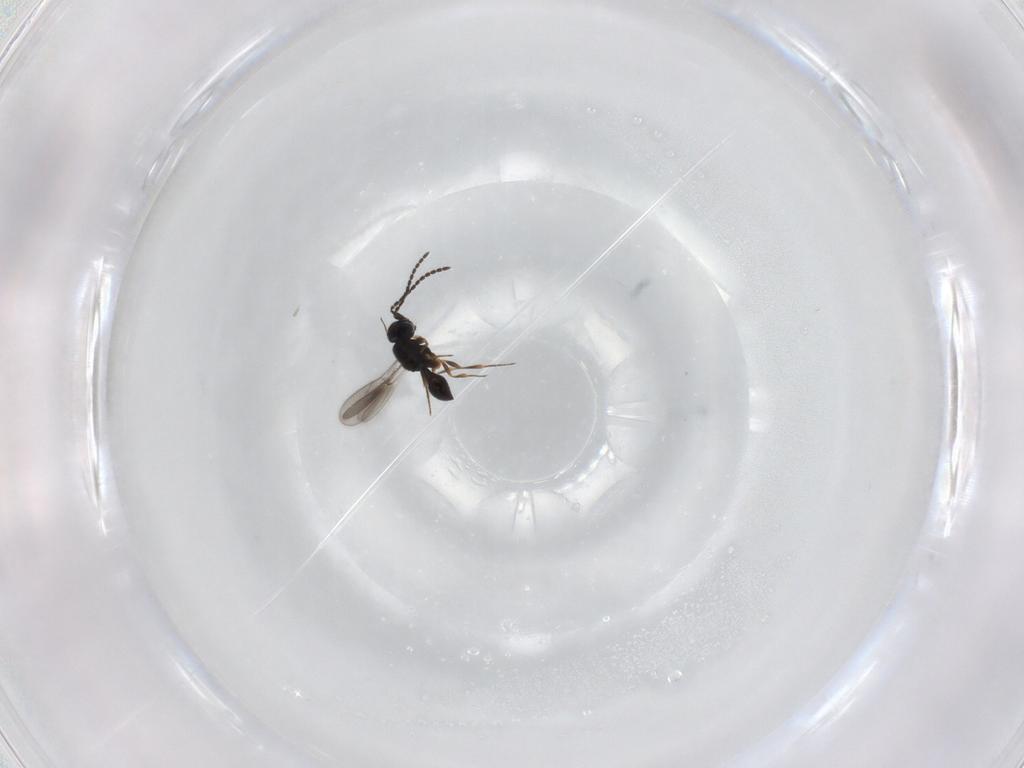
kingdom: Animalia
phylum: Arthropoda
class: Insecta
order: Hymenoptera
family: Scelionidae
